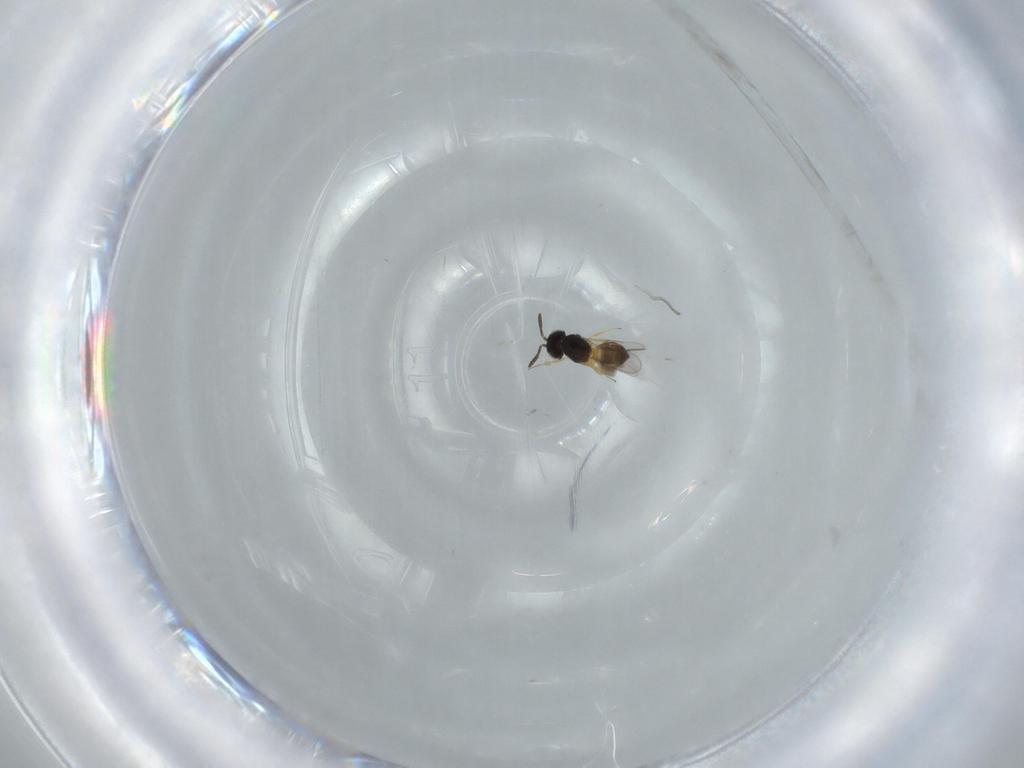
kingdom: Animalia
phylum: Arthropoda
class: Insecta
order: Hymenoptera
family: Scelionidae
